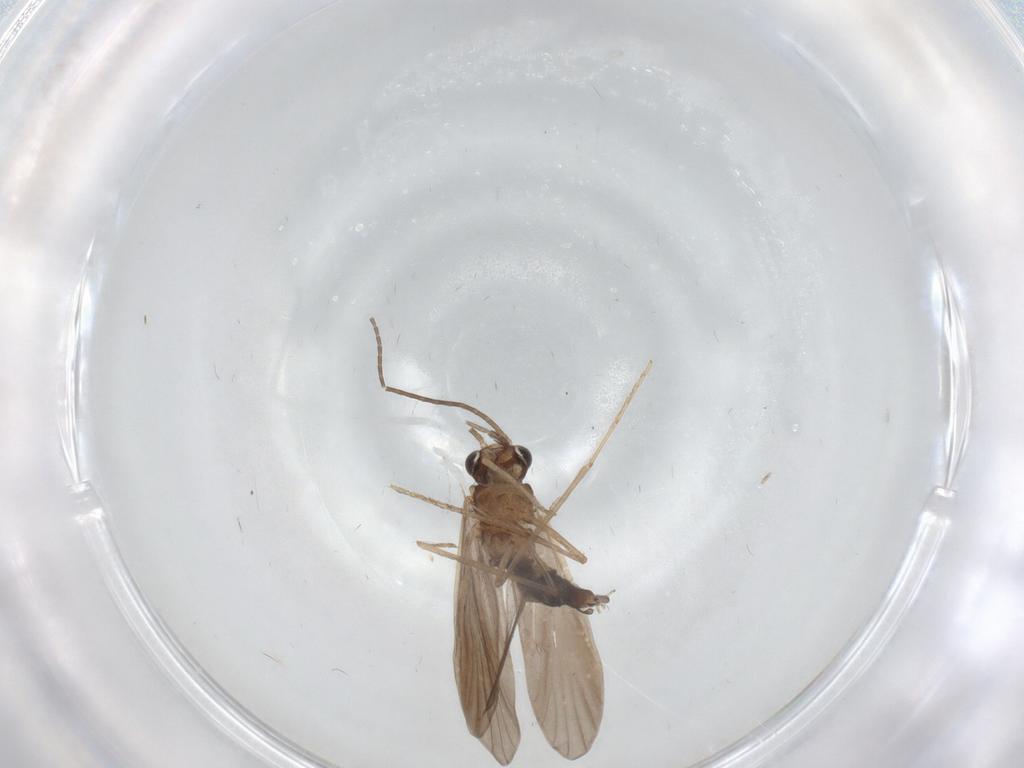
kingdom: Animalia
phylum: Arthropoda
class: Insecta
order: Trichoptera
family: Xiphocentronidae
